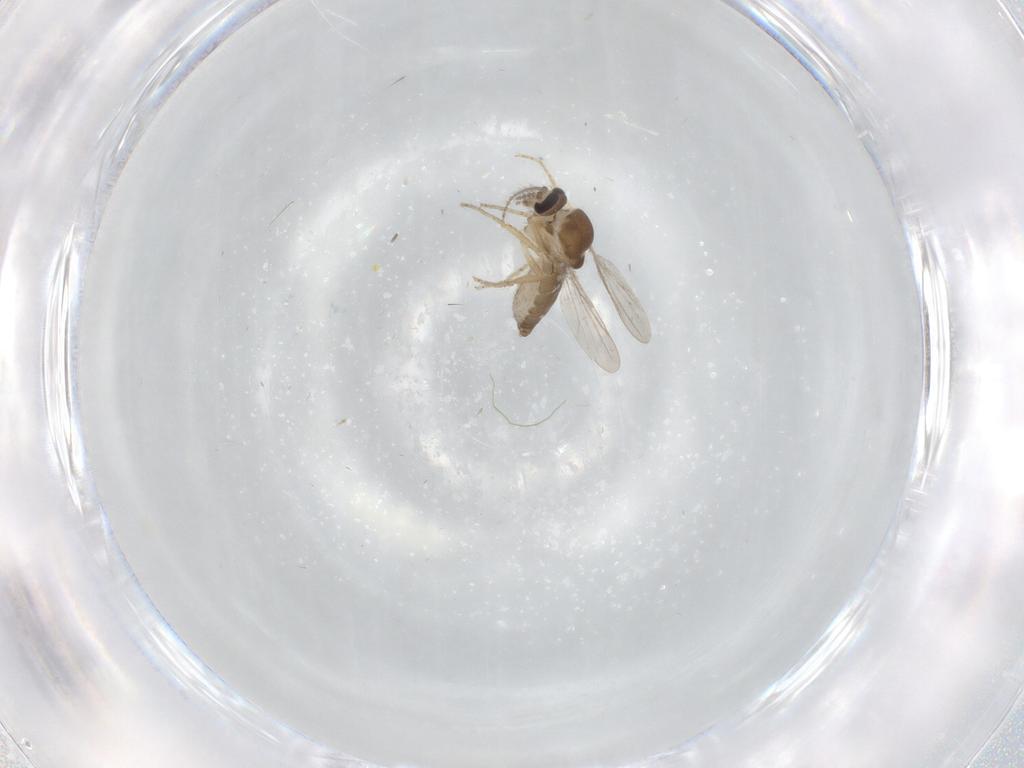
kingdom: Animalia
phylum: Arthropoda
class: Insecta
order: Diptera
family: Ceratopogonidae
